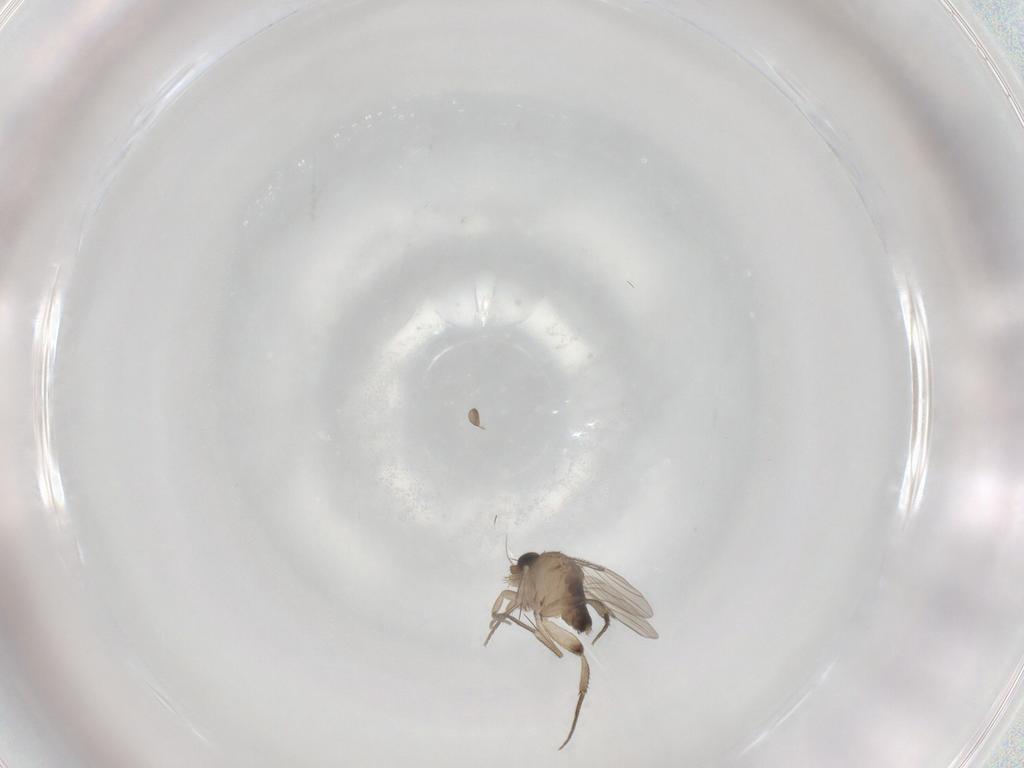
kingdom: Animalia
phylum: Arthropoda
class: Insecta
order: Diptera
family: Phoridae
